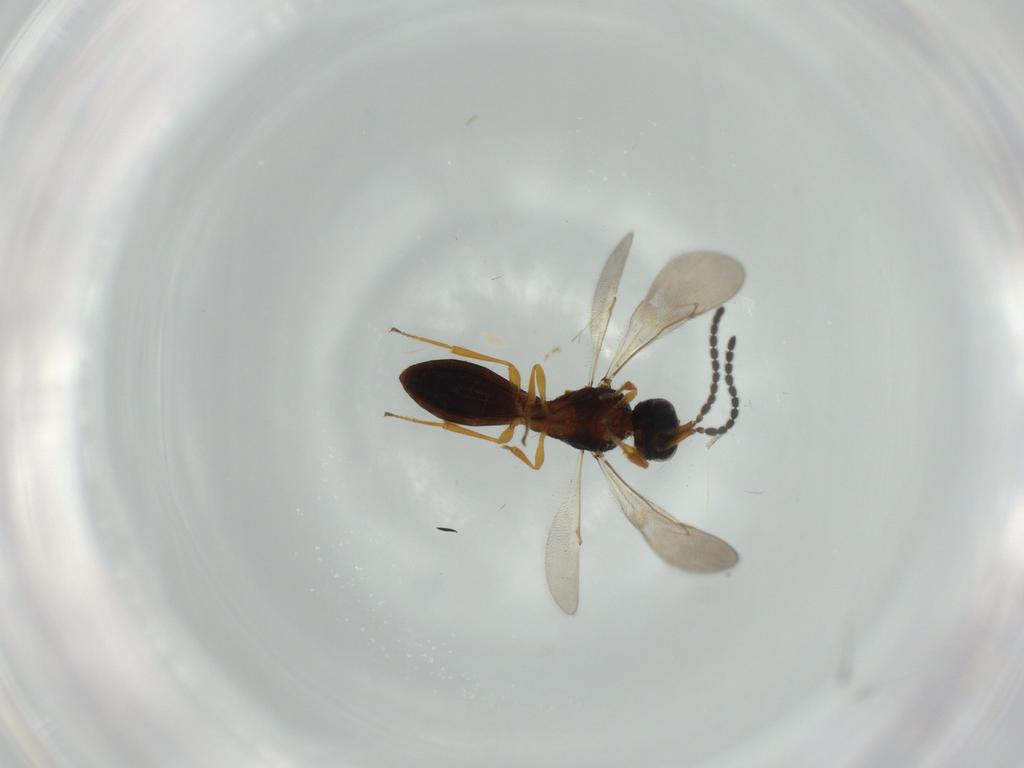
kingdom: Animalia
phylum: Arthropoda
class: Insecta
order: Hymenoptera
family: Scelionidae
